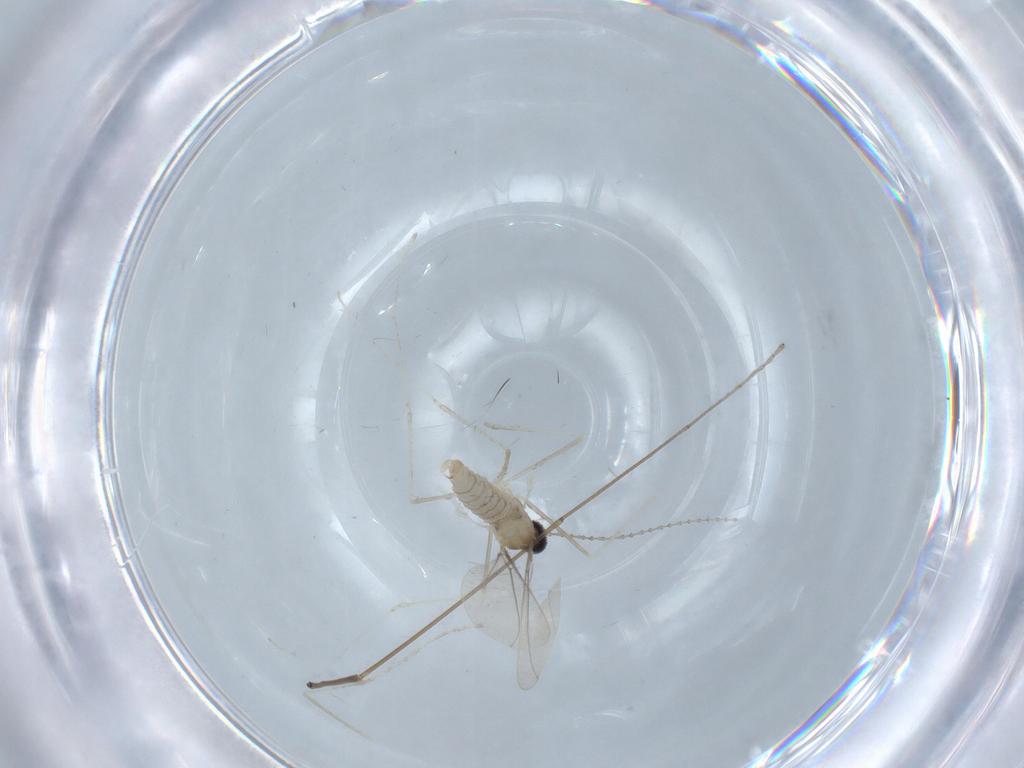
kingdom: Animalia
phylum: Arthropoda
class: Insecta
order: Diptera
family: Cecidomyiidae
